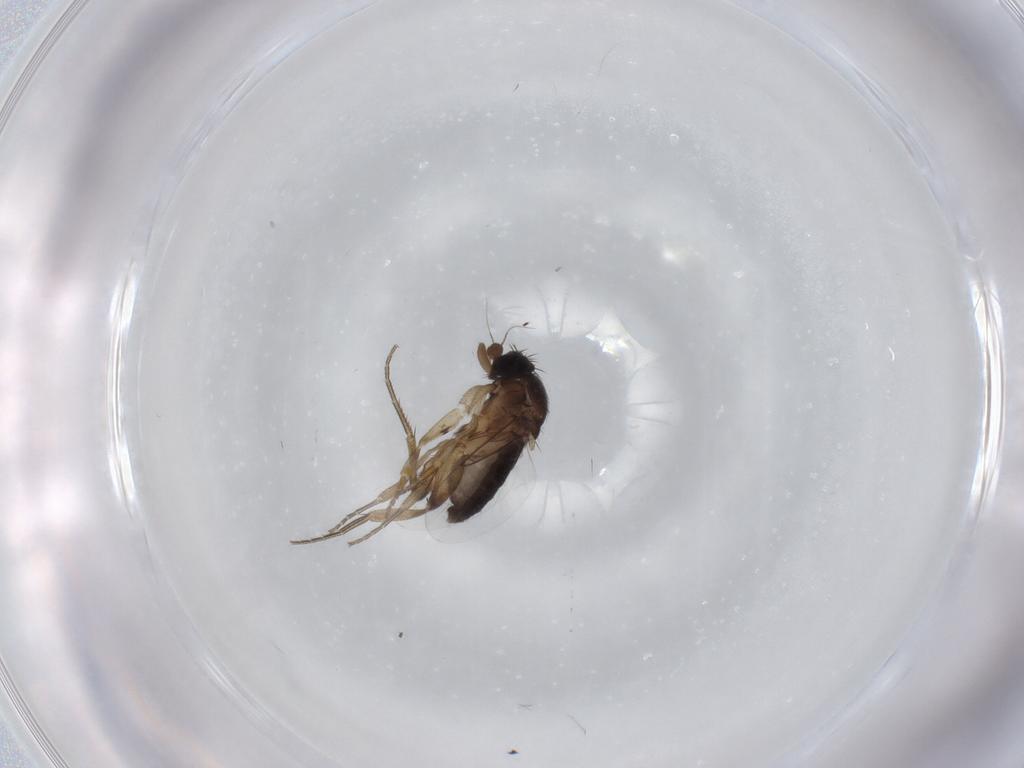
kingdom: Animalia
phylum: Arthropoda
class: Insecta
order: Diptera
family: Phoridae
